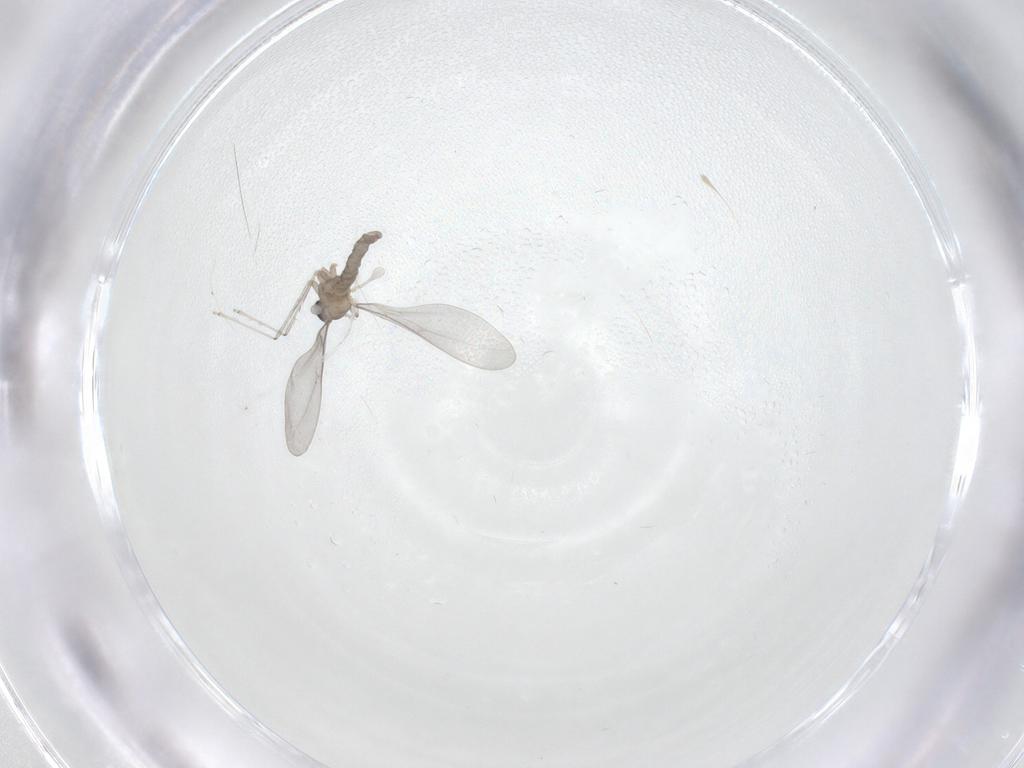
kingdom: Animalia
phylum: Arthropoda
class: Insecta
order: Diptera
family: Cecidomyiidae
